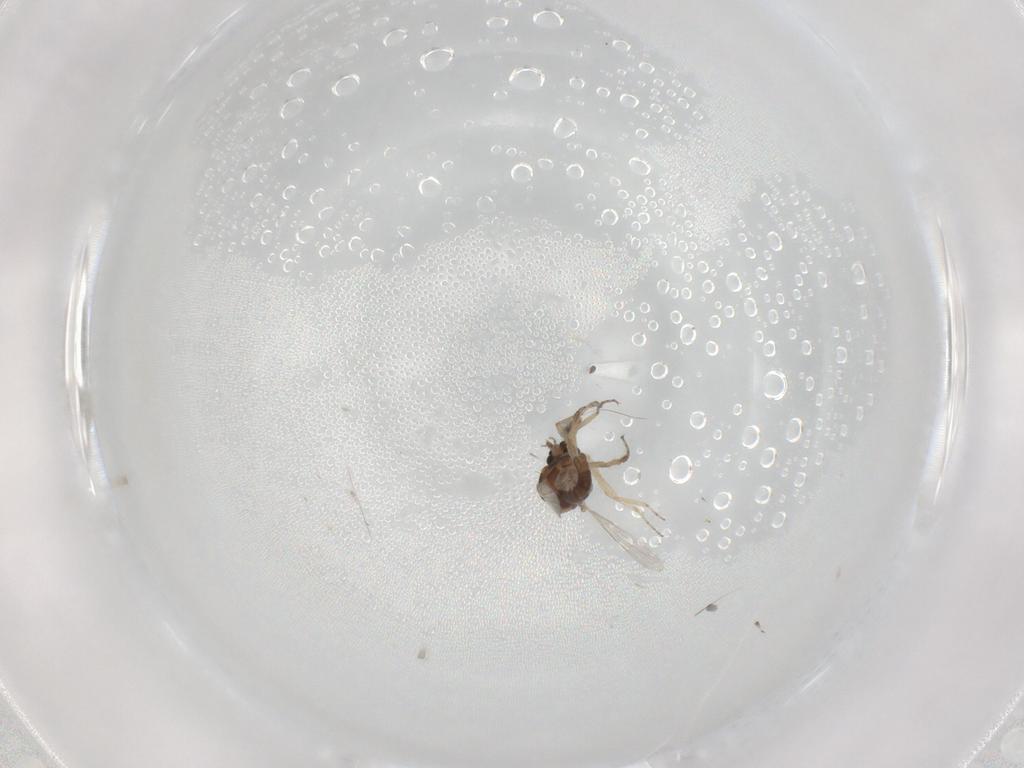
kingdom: Animalia
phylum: Arthropoda
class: Insecta
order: Diptera
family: Ceratopogonidae
